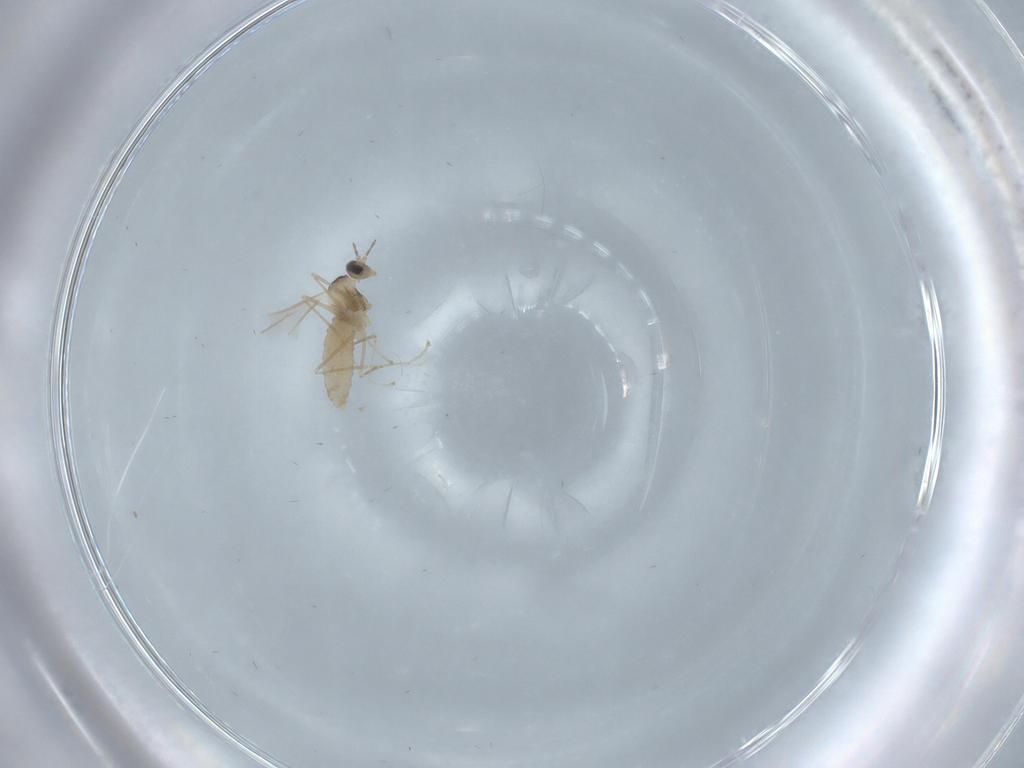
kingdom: Animalia
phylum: Arthropoda
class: Insecta
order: Diptera
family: Cecidomyiidae
